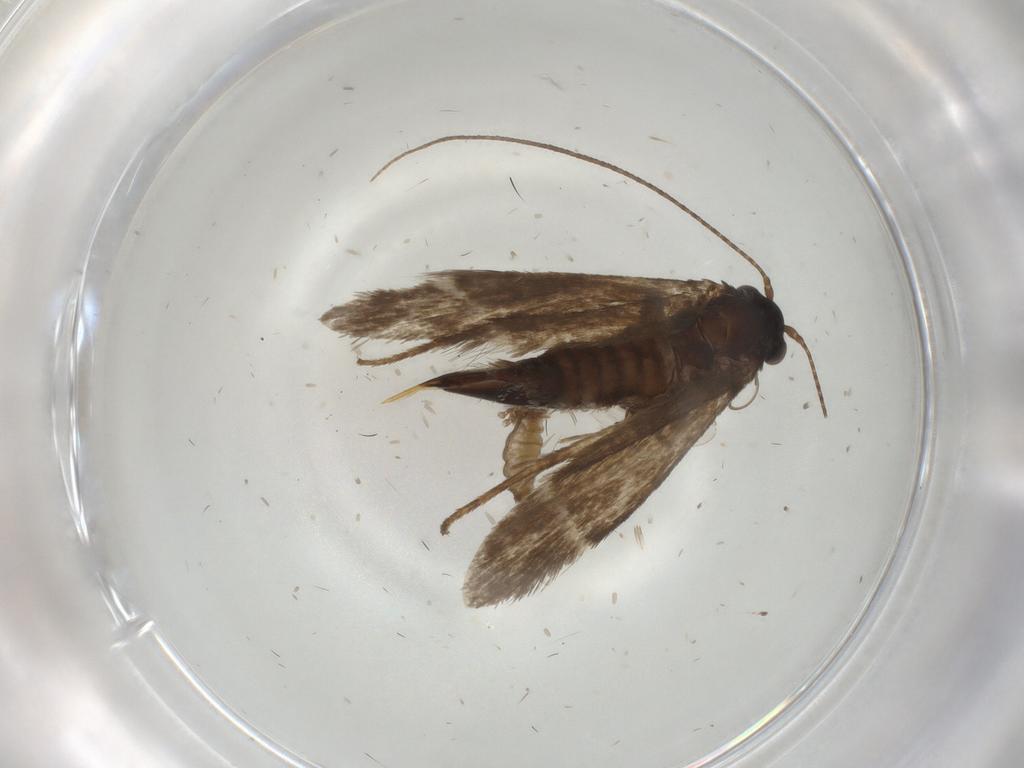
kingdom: Animalia
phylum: Arthropoda
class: Insecta
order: Lepidoptera
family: Adelidae
